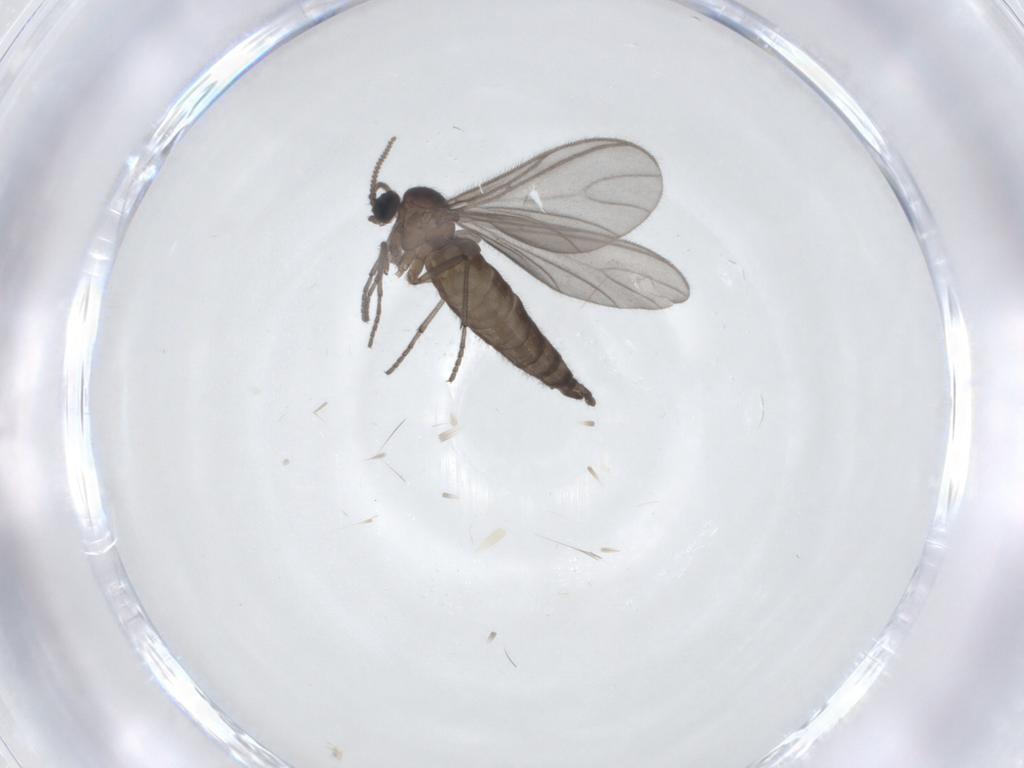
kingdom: Animalia
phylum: Arthropoda
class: Insecta
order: Diptera
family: Sciaridae
